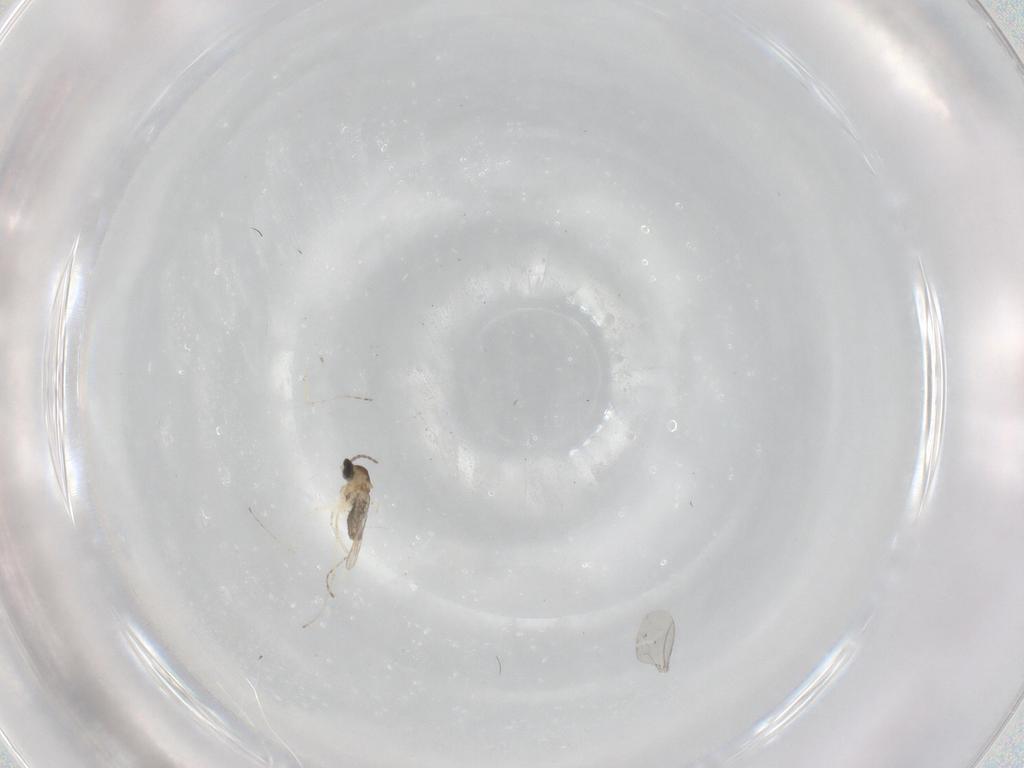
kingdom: Animalia
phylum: Arthropoda
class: Insecta
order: Diptera
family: Cecidomyiidae
